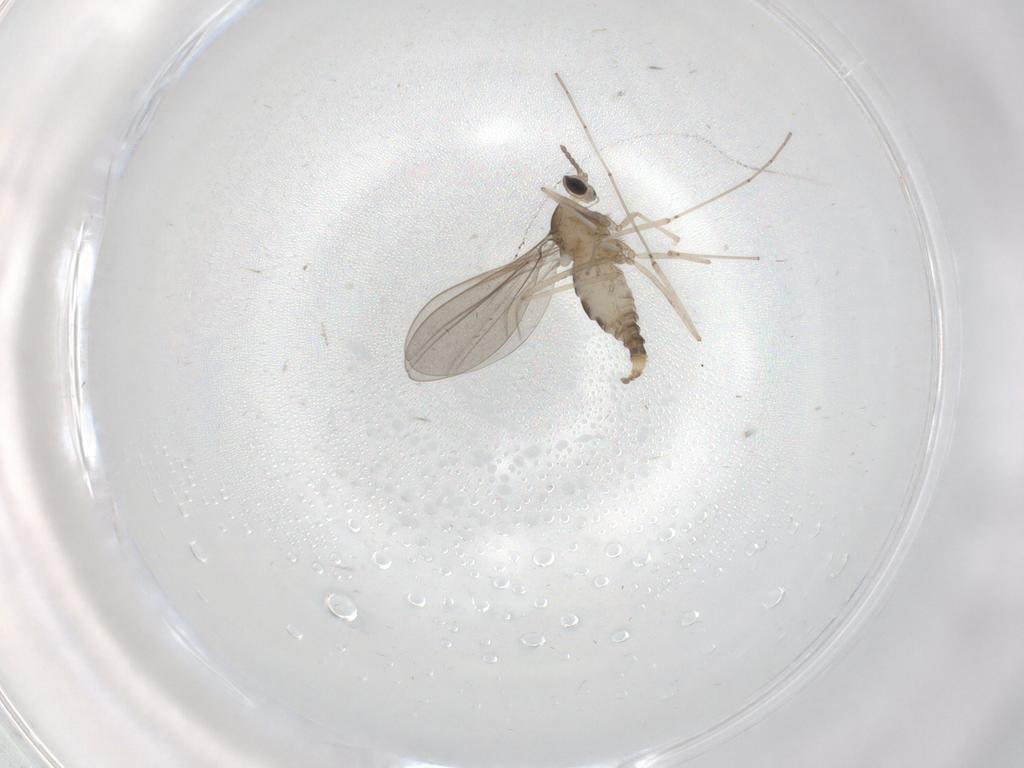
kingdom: Animalia
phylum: Arthropoda
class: Insecta
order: Diptera
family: Cecidomyiidae
